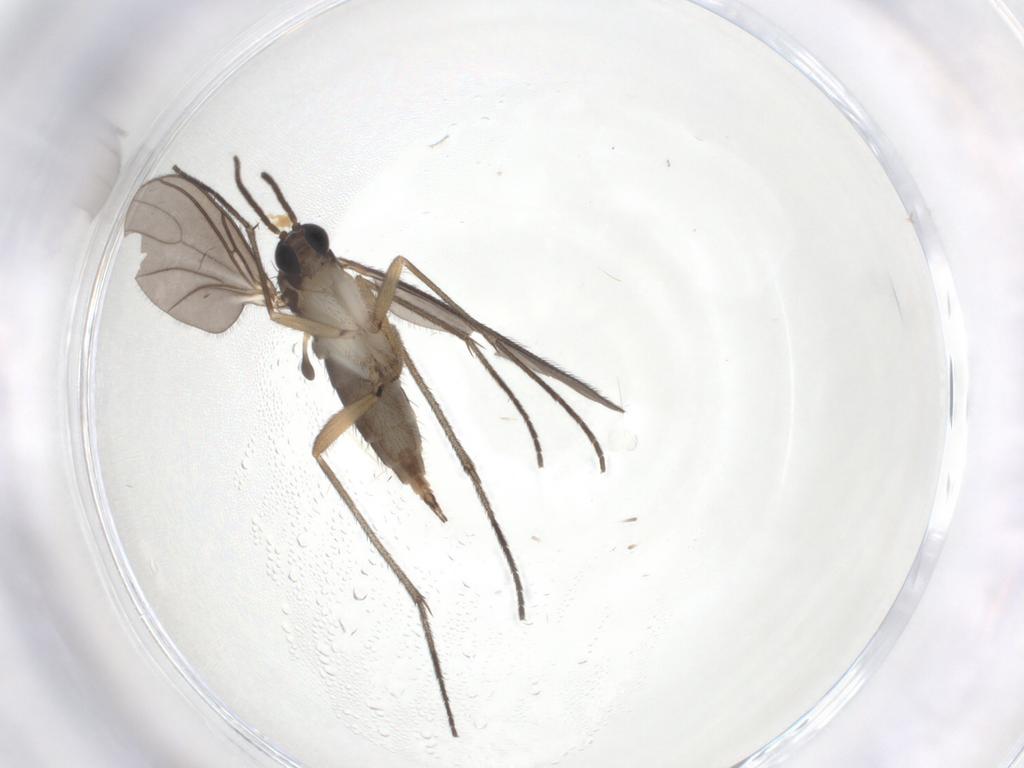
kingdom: Animalia
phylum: Arthropoda
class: Insecta
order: Diptera
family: Sciaridae
